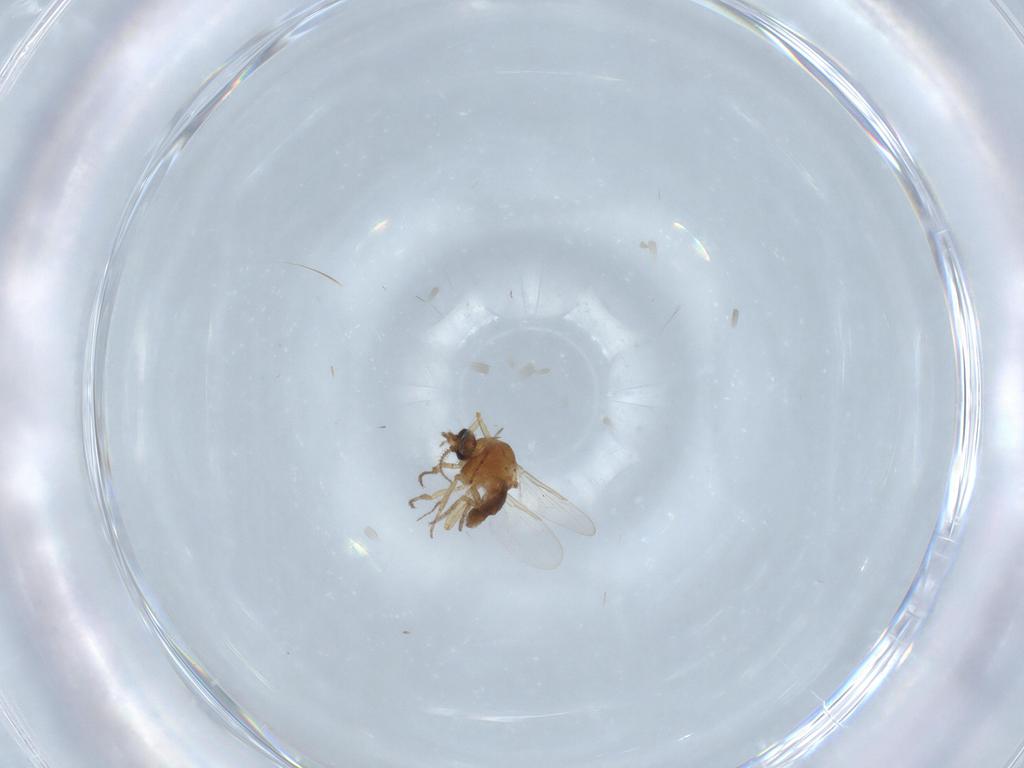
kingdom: Animalia
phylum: Arthropoda
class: Insecta
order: Diptera
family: Ceratopogonidae
